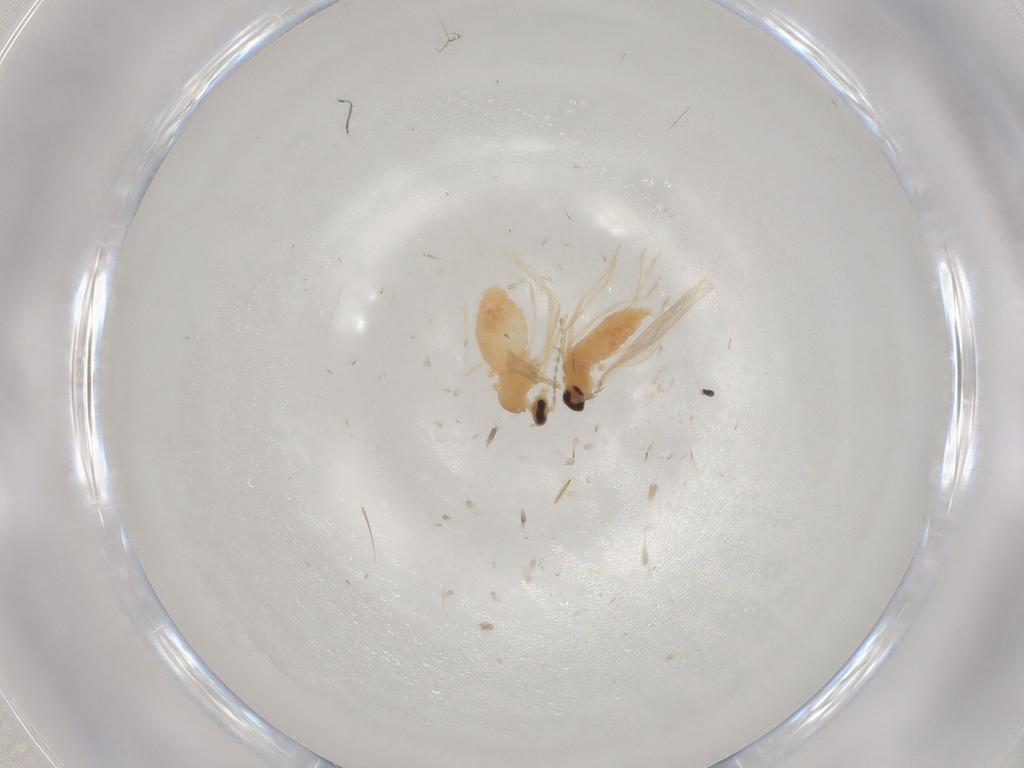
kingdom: Animalia
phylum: Arthropoda
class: Insecta
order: Diptera
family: Cecidomyiidae
